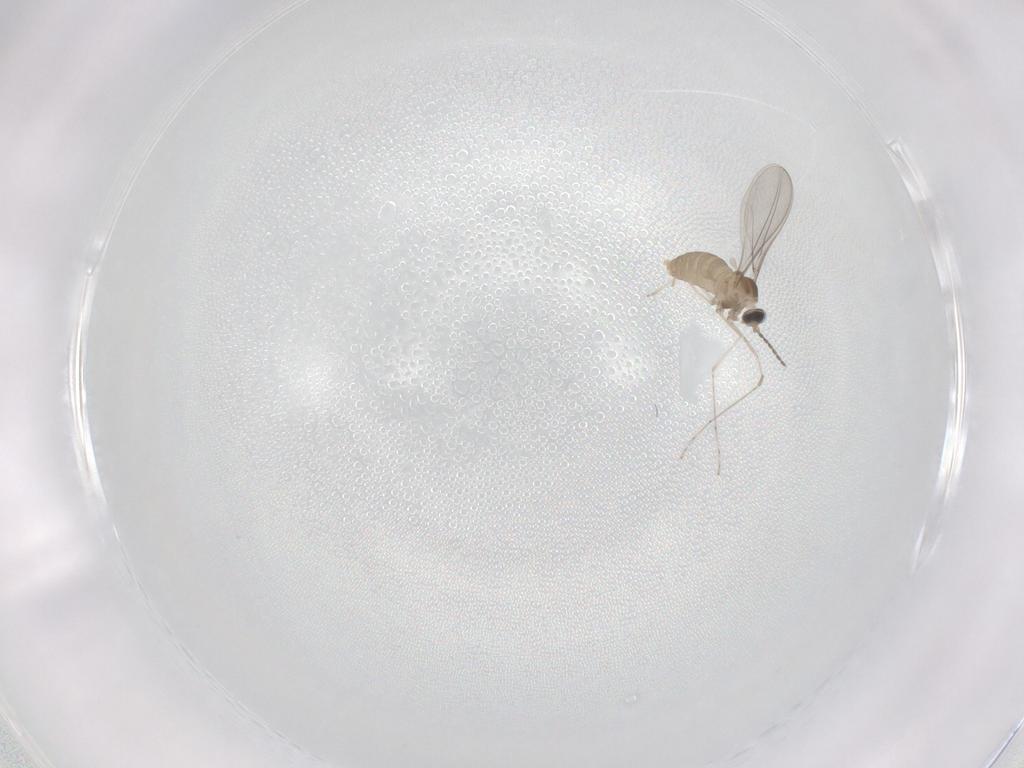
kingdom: Animalia
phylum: Arthropoda
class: Insecta
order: Diptera
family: Cecidomyiidae
